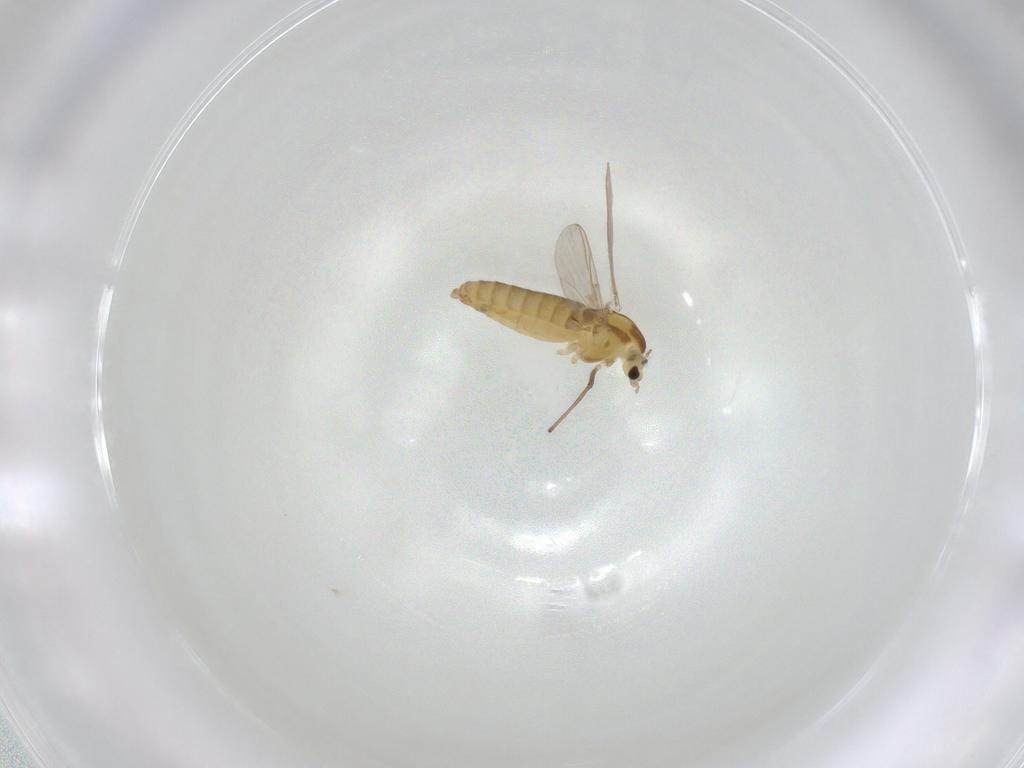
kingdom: Animalia
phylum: Arthropoda
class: Insecta
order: Diptera
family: Chironomidae
